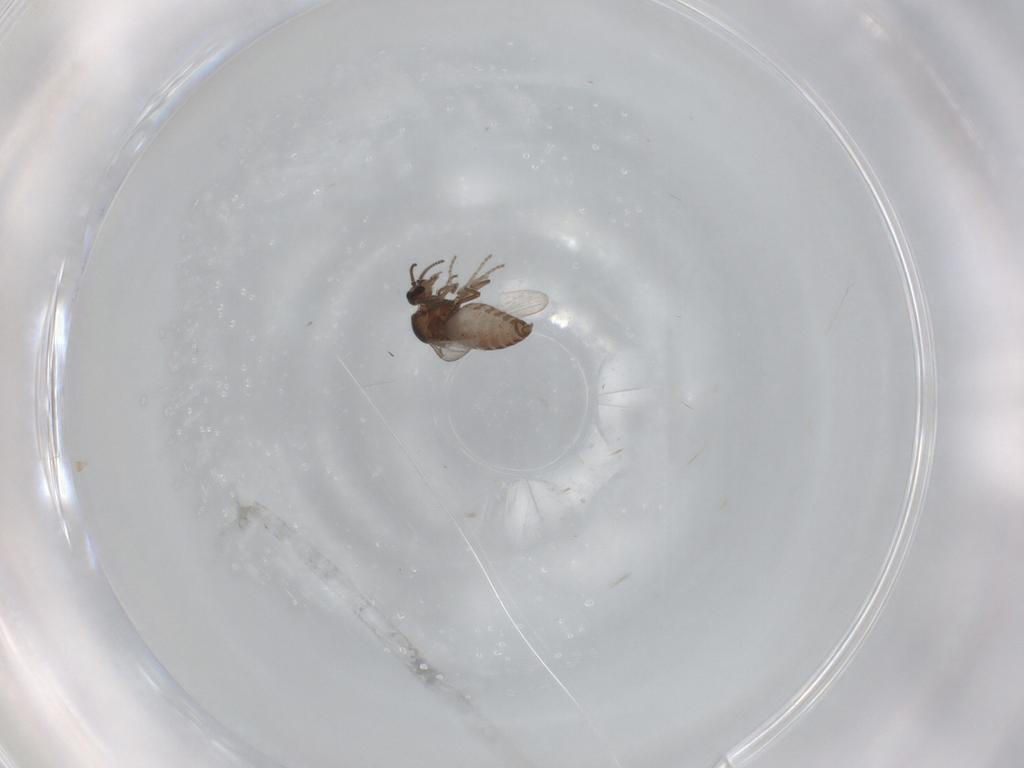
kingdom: Animalia
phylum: Arthropoda
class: Insecta
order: Diptera
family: Ceratopogonidae
